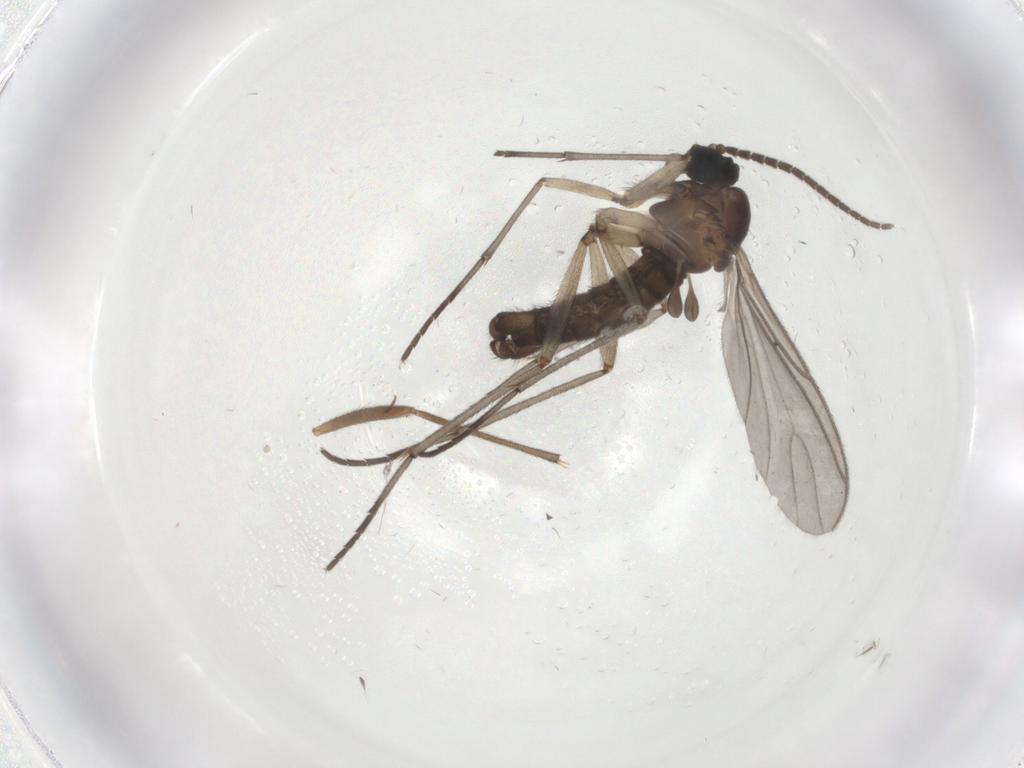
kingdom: Animalia
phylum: Arthropoda
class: Insecta
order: Diptera
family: Sciaridae
